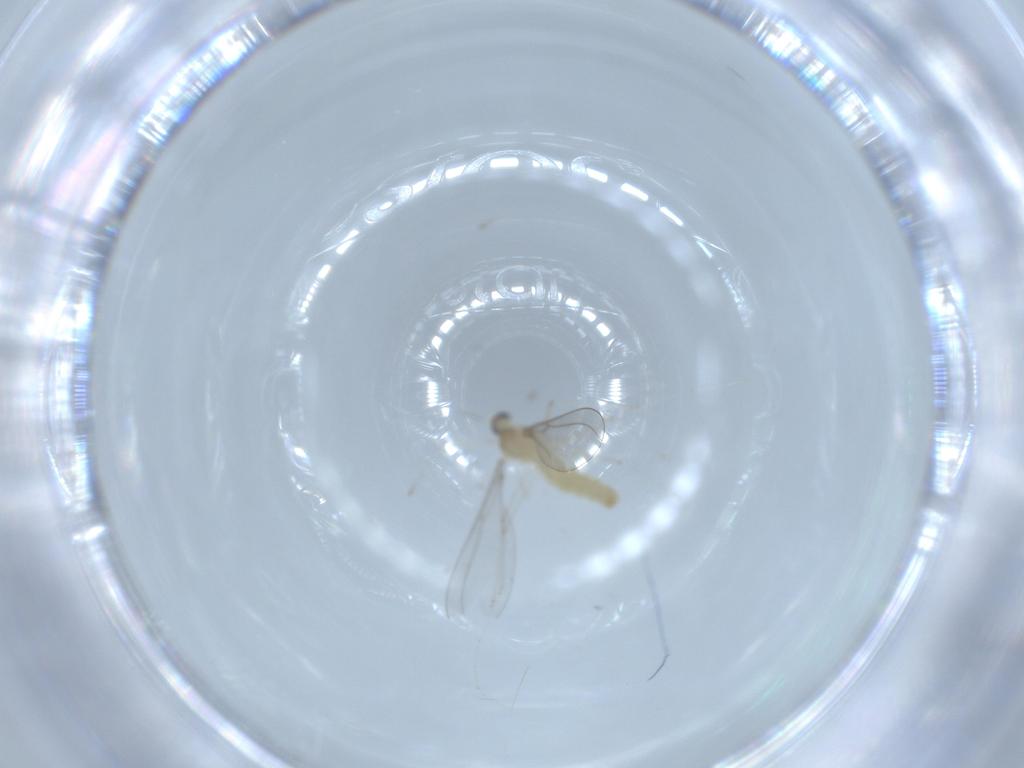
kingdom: Animalia
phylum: Arthropoda
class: Insecta
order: Diptera
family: Cecidomyiidae
